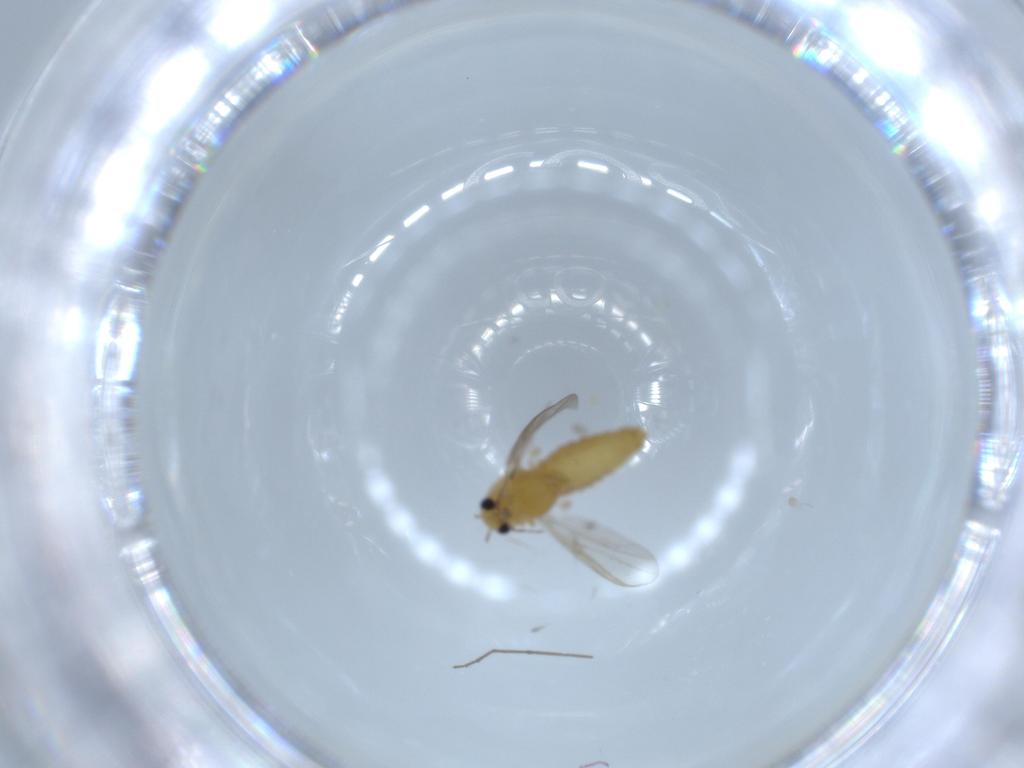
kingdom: Animalia
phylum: Arthropoda
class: Insecta
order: Diptera
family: Chironomidae
